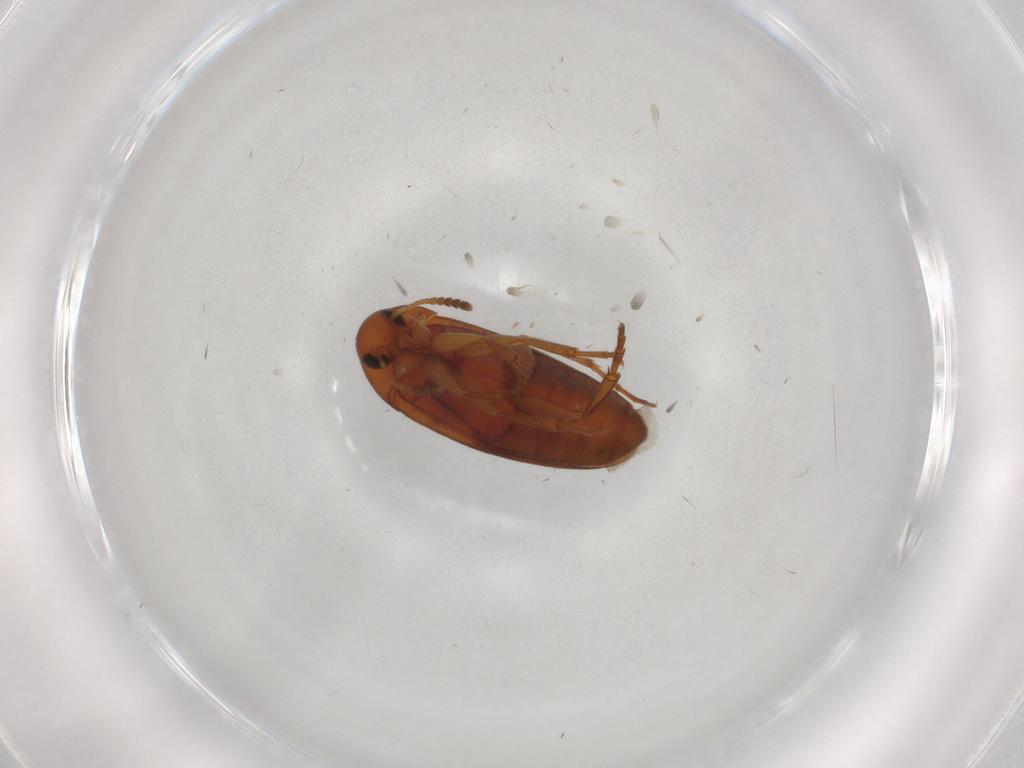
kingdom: Animalia
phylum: Arthropoda
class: Insecta
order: Coleoptera
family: Scraptiidae
